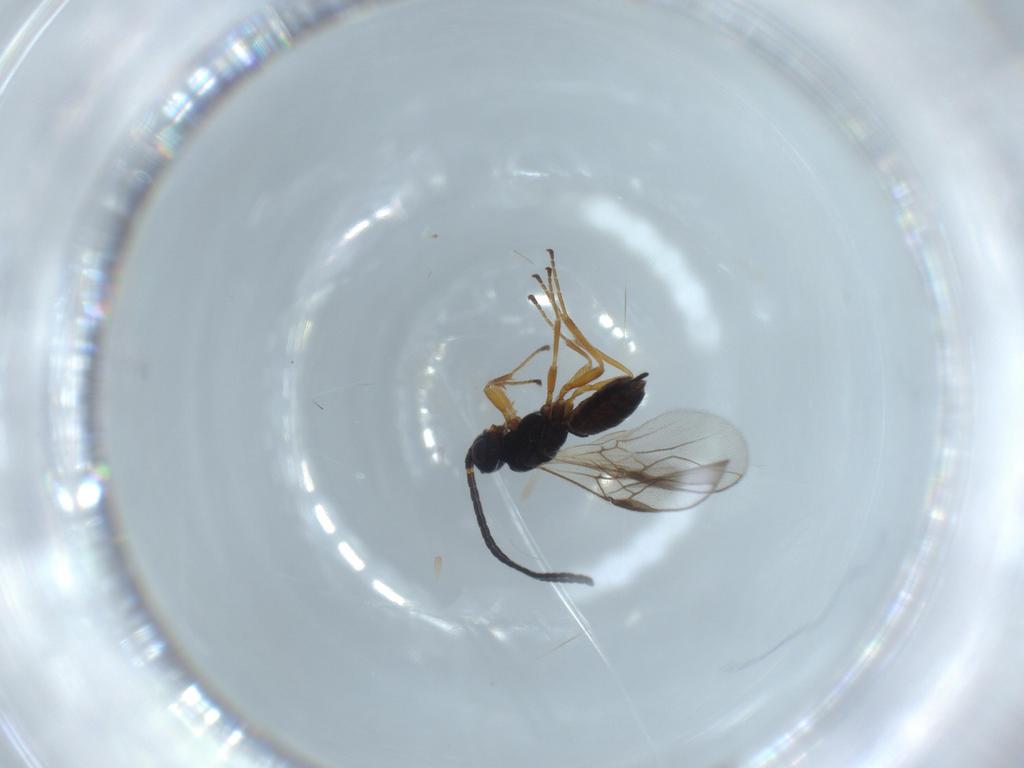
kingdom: Animalia
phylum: Arthropoda
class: Insecta
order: Hymenoptera
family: Braconidae
